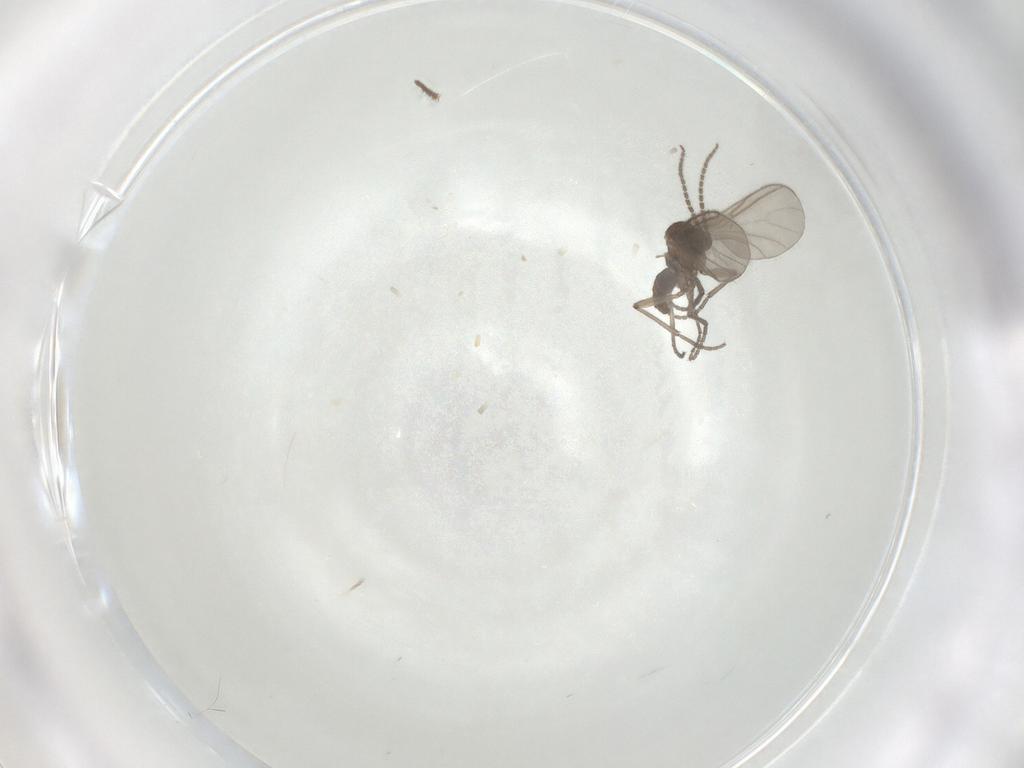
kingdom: Animalia
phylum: Arthropoda
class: Insecta
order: Diptera
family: Sciaridae
